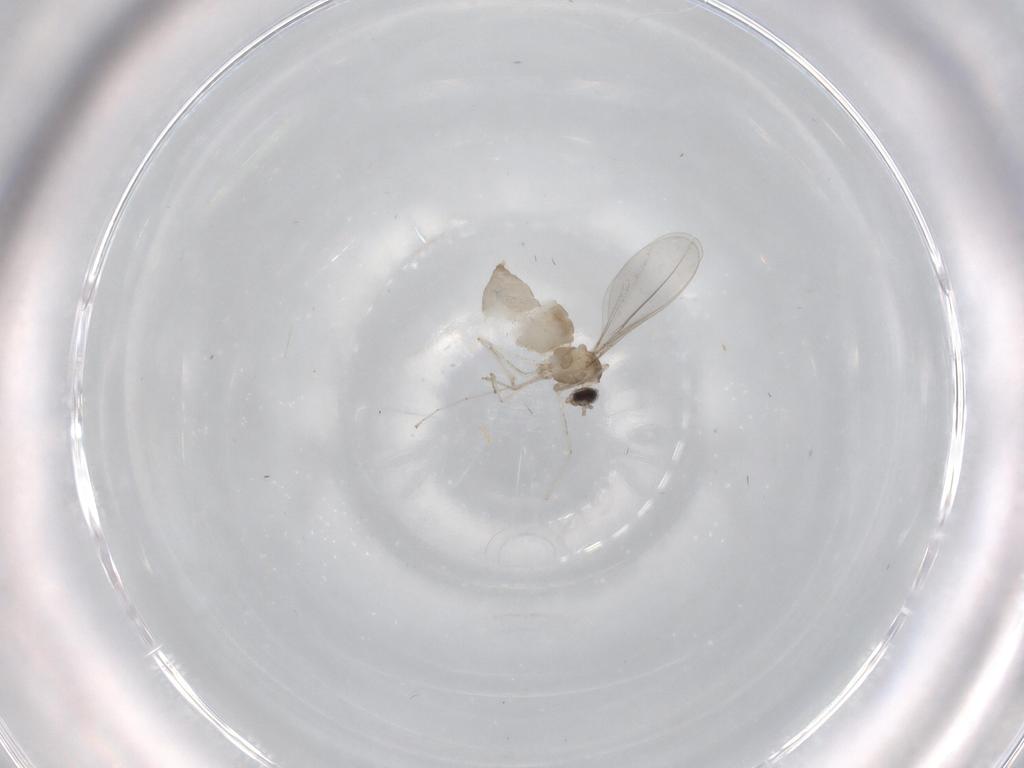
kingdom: Animalia
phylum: Arthropoda
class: Insecta
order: Diptera
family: Cecidomyiidae
